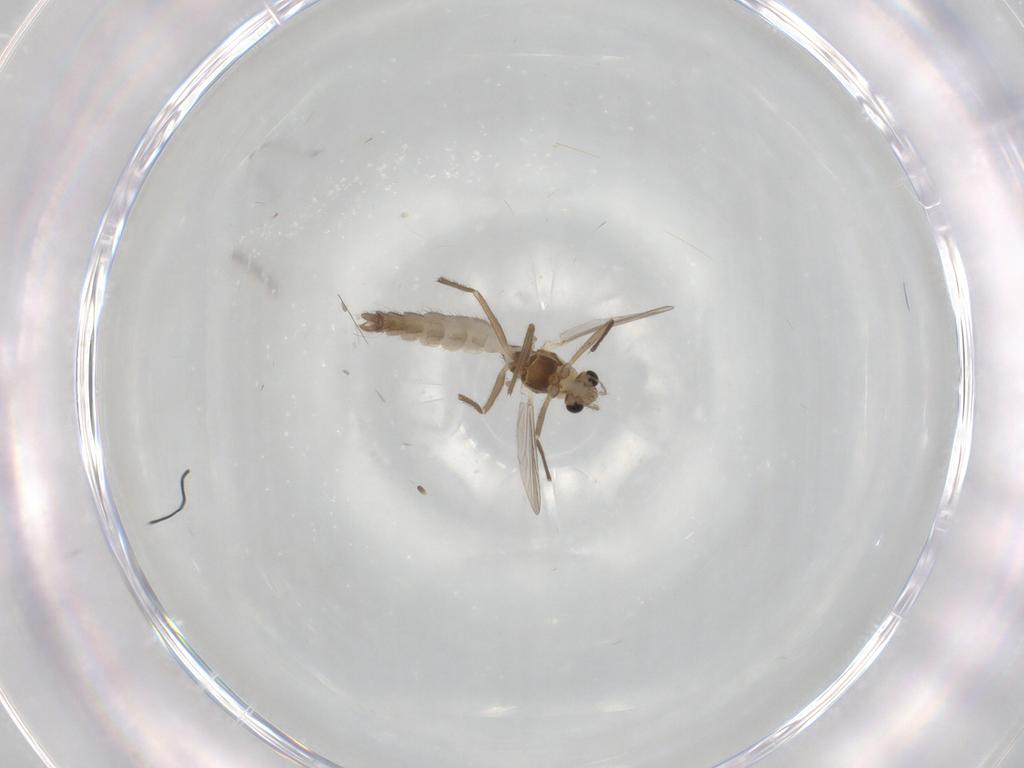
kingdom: Animalia
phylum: Arthropoda
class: Insecta
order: Diptera
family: Chironomidae
